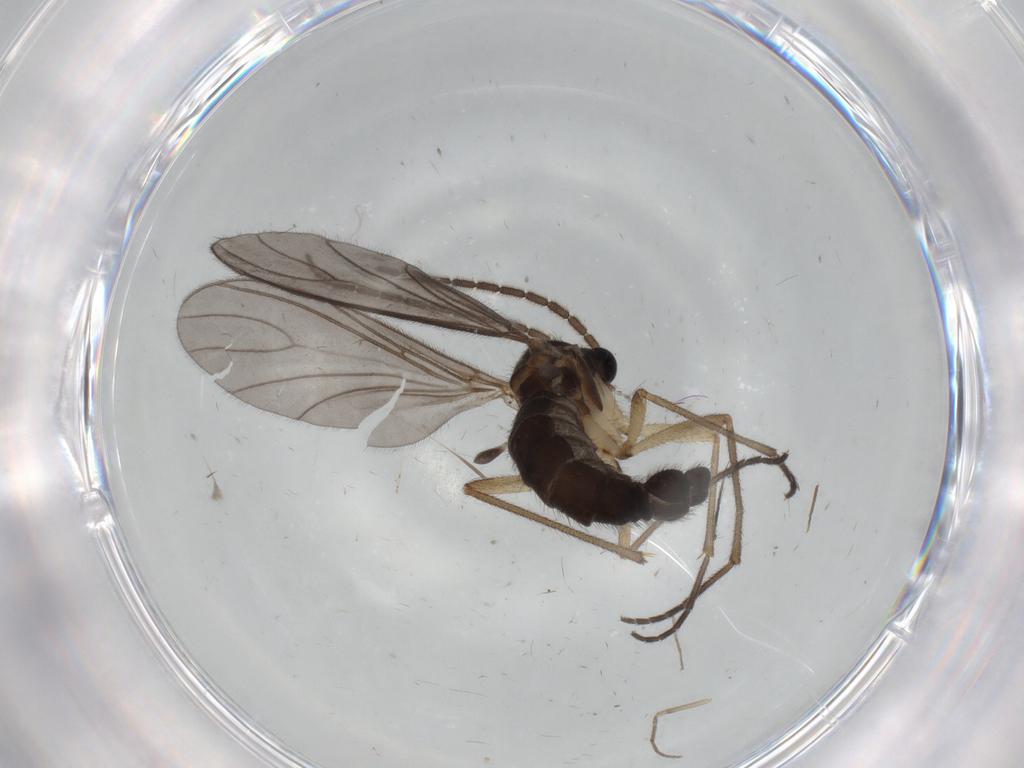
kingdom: Animalia
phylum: Arthropoda
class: Insecta
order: Diptera
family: Sciaridae
